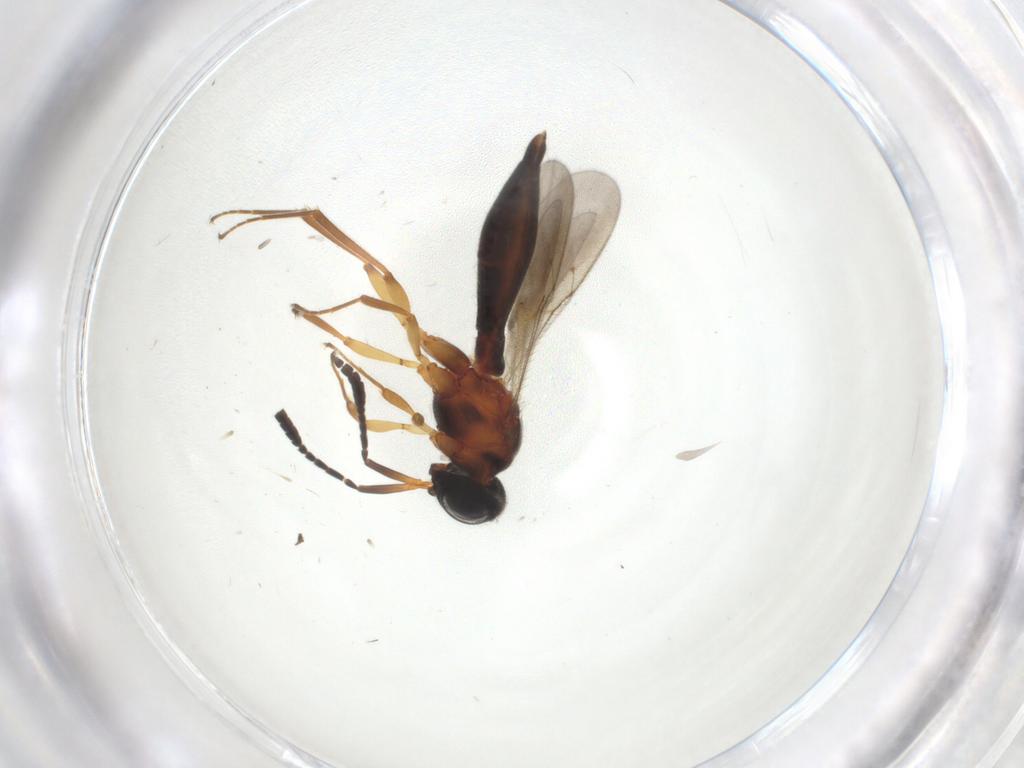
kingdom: Animalia
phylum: Arthropoda
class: Insecta
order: Hymenoptera
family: Scelionidae
